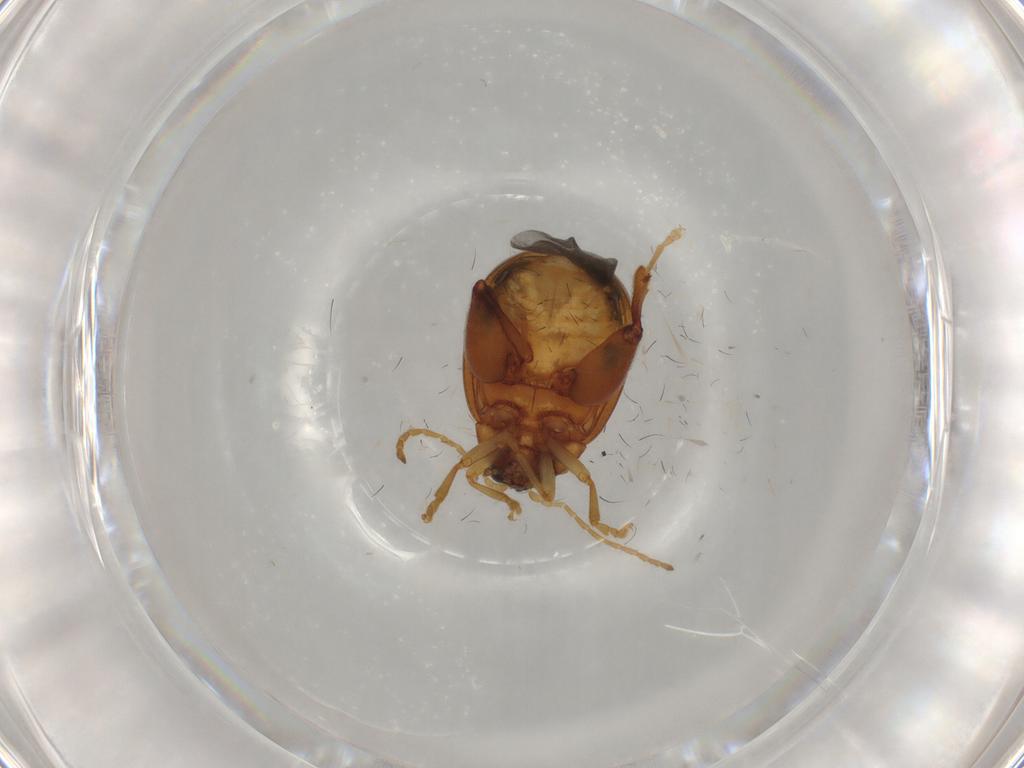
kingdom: Animalia
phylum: Arthropoda
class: Insecta
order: Coleoptera
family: Chrysomelidae
